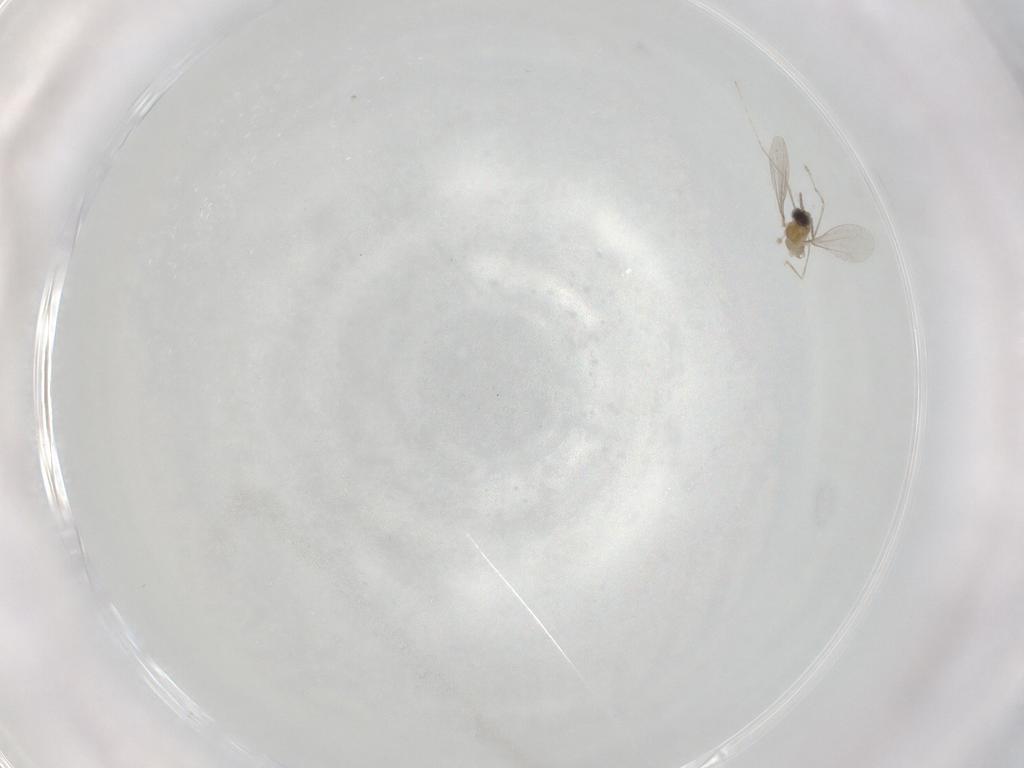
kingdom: Animalia
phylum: Arthropoda
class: Insecta
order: Diptera
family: Cecidomyiidae
